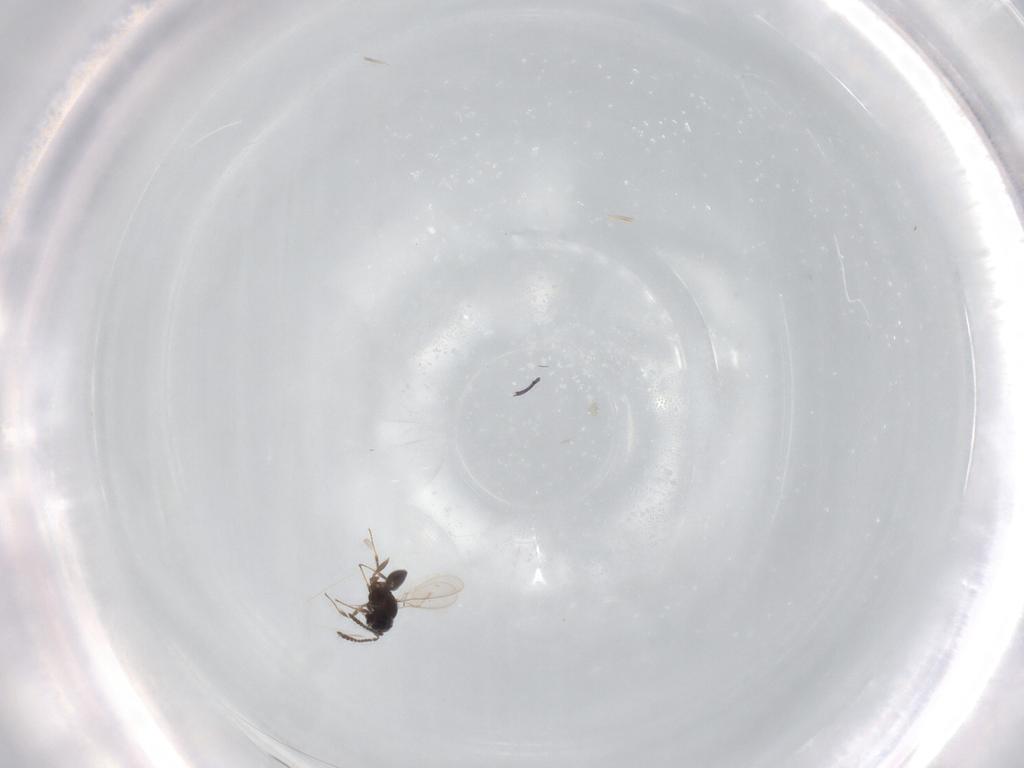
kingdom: Animalia
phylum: Arthropoda
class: Insecta
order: Hymenoptera
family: Scelionidae
